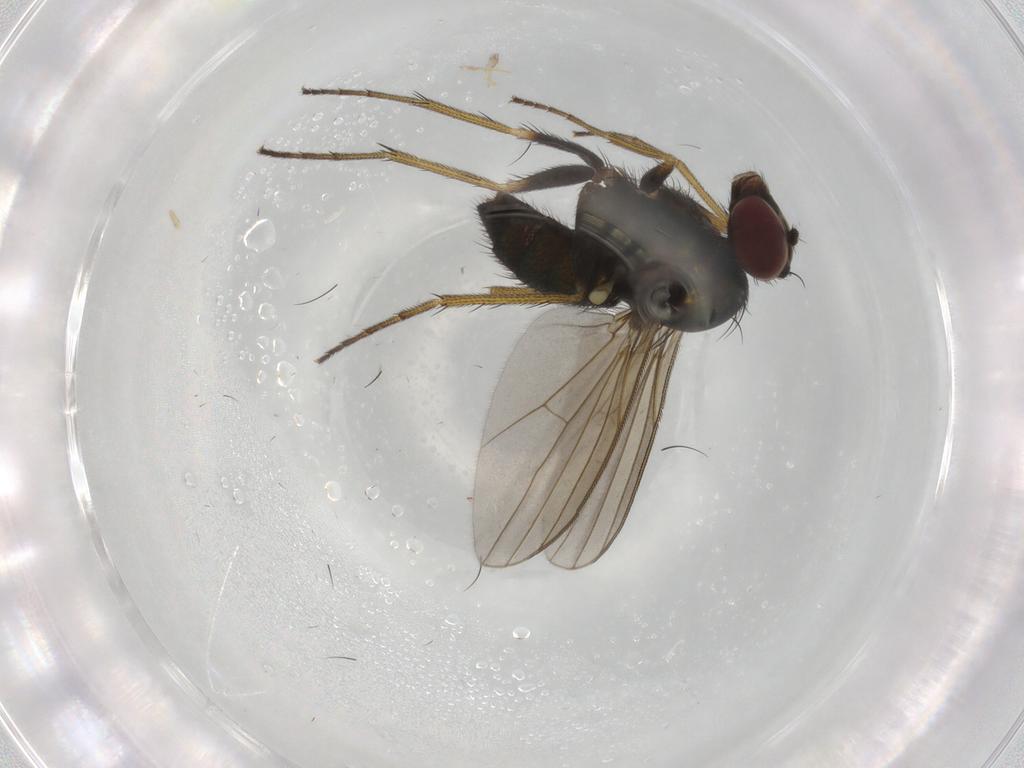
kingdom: Animalia
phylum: Arthropoda
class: Insecta
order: Diptera
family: Dolichopodidae
